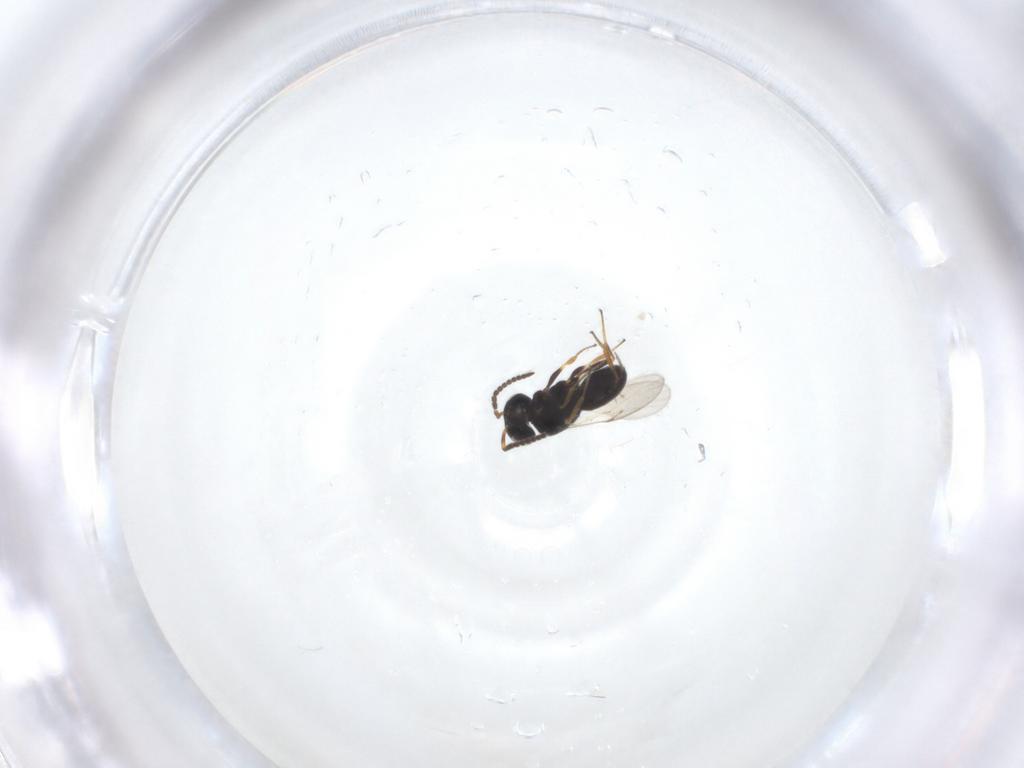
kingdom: Animalia
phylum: Arthropoda
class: Insecta
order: Hymenoptera
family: Scelionidae
